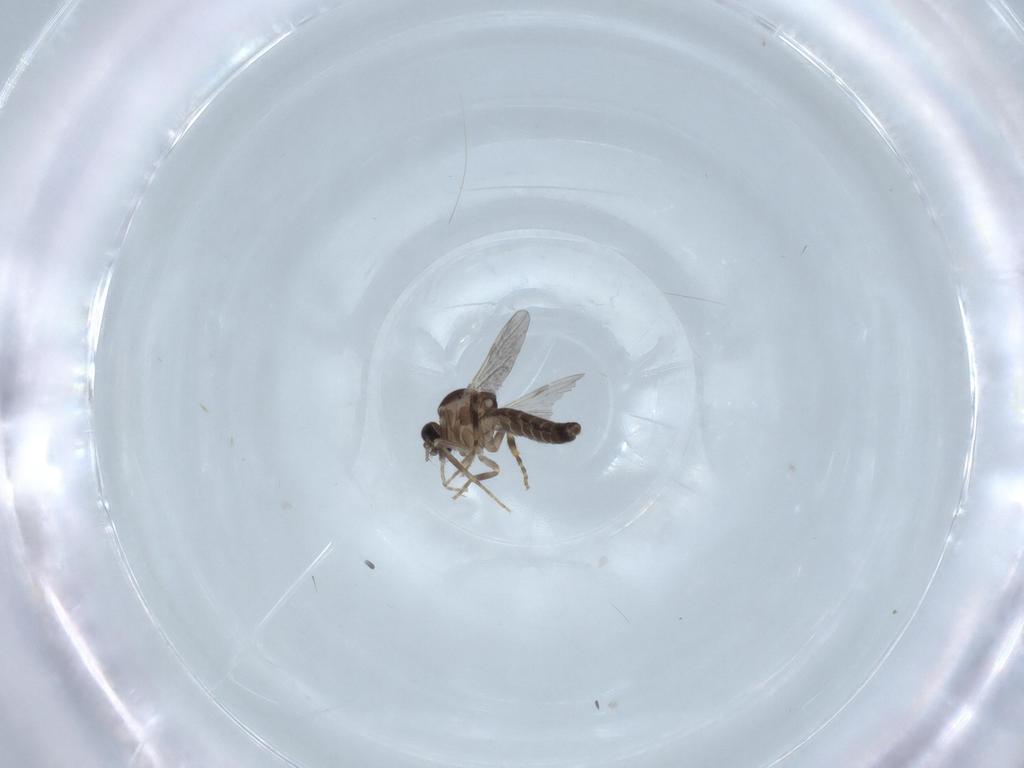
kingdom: Animalia
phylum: Arthropoda
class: Insecta
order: Diptera
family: Ceratopogonidae
